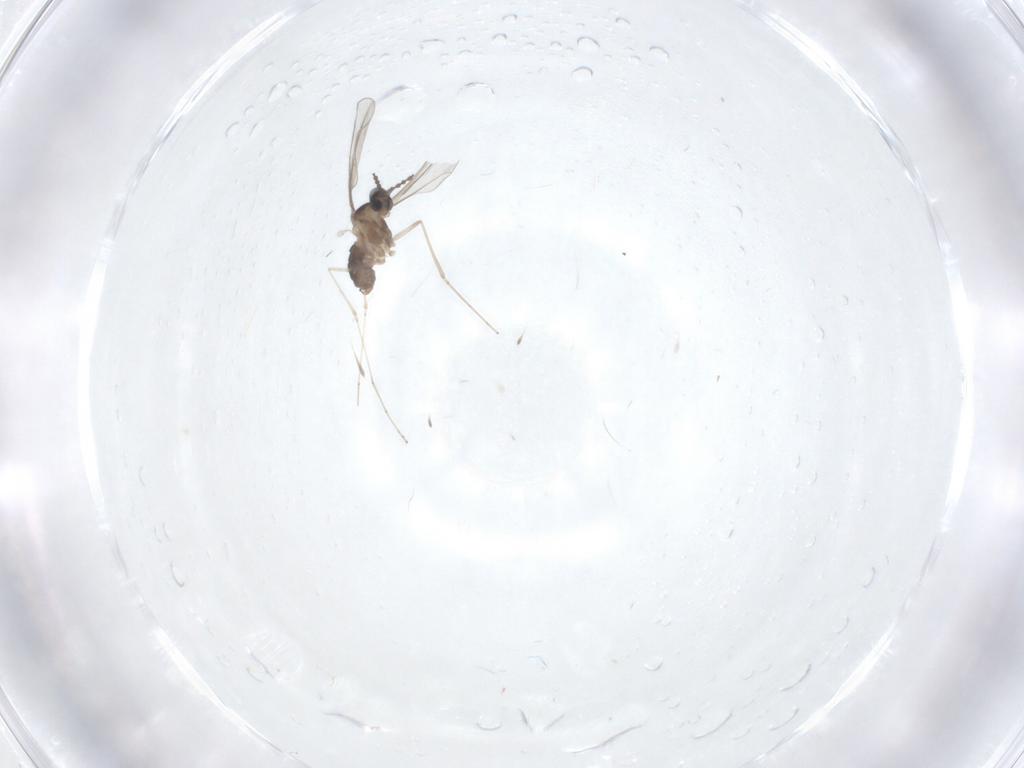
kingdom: Animalia
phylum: Arthropoda
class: Insecta
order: Diptera
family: Cecidomyiidae
